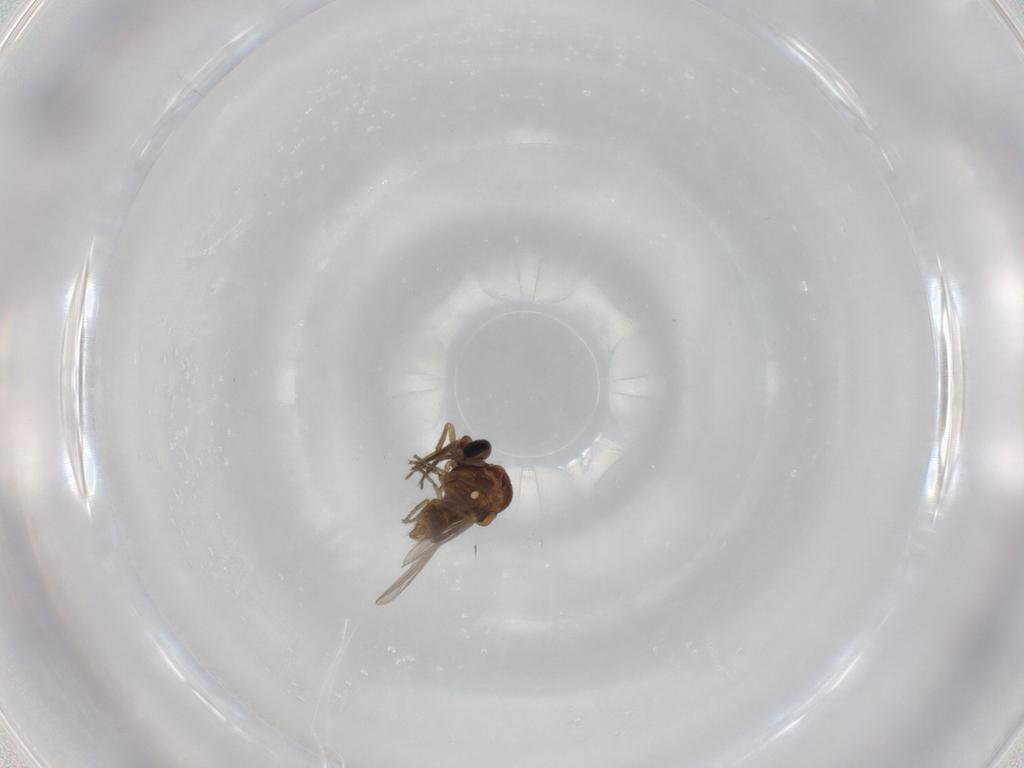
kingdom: Animalia
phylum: Arthropoda
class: Insecta
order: Diptera
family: Ceratopogonidae
